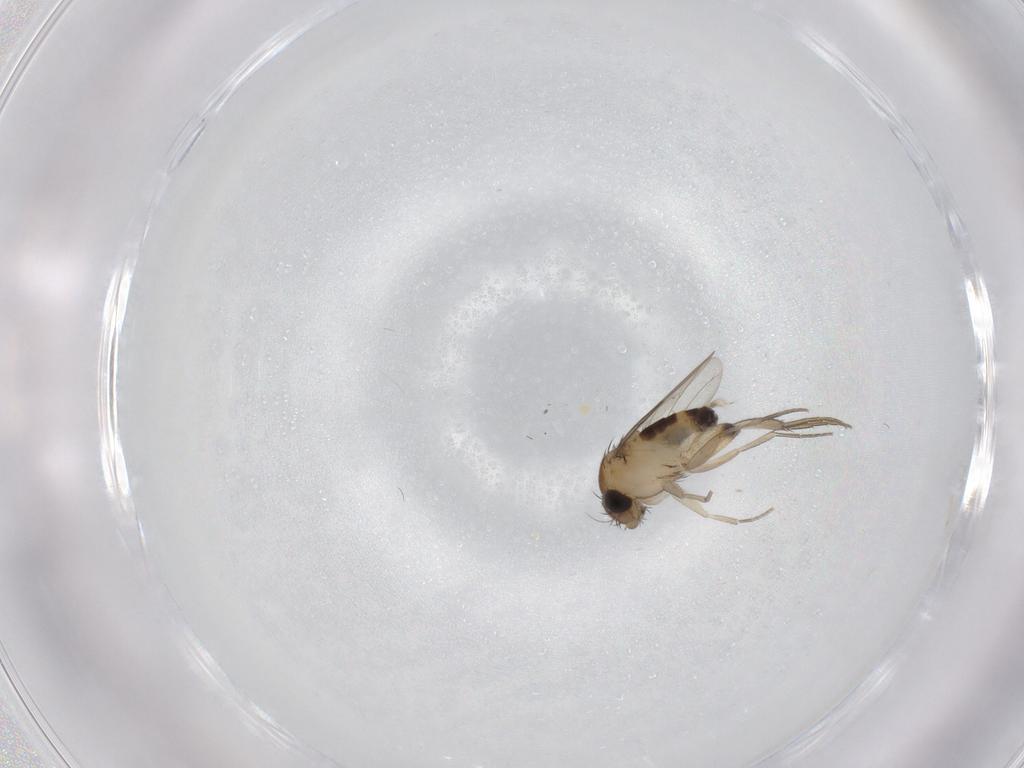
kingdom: Animalia
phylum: Arthropoda
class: Insecta
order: Diptera
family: Phoridae
